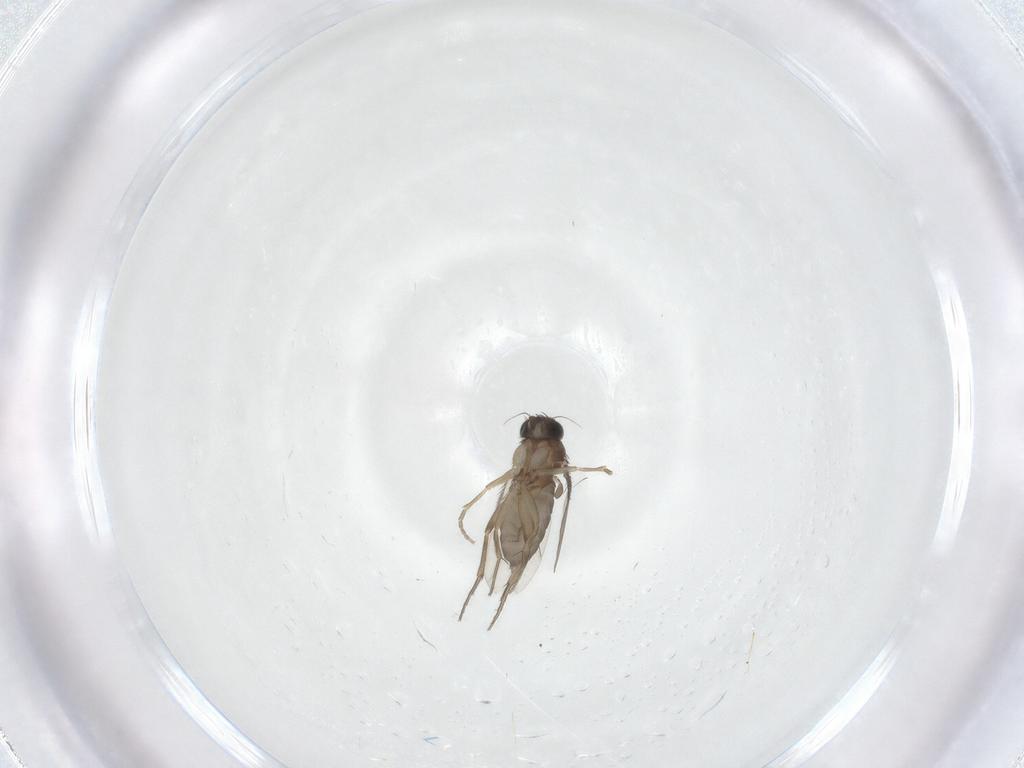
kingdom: Animalia
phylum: Arthropoda
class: Insecta
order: Diptera
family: Phoridae
